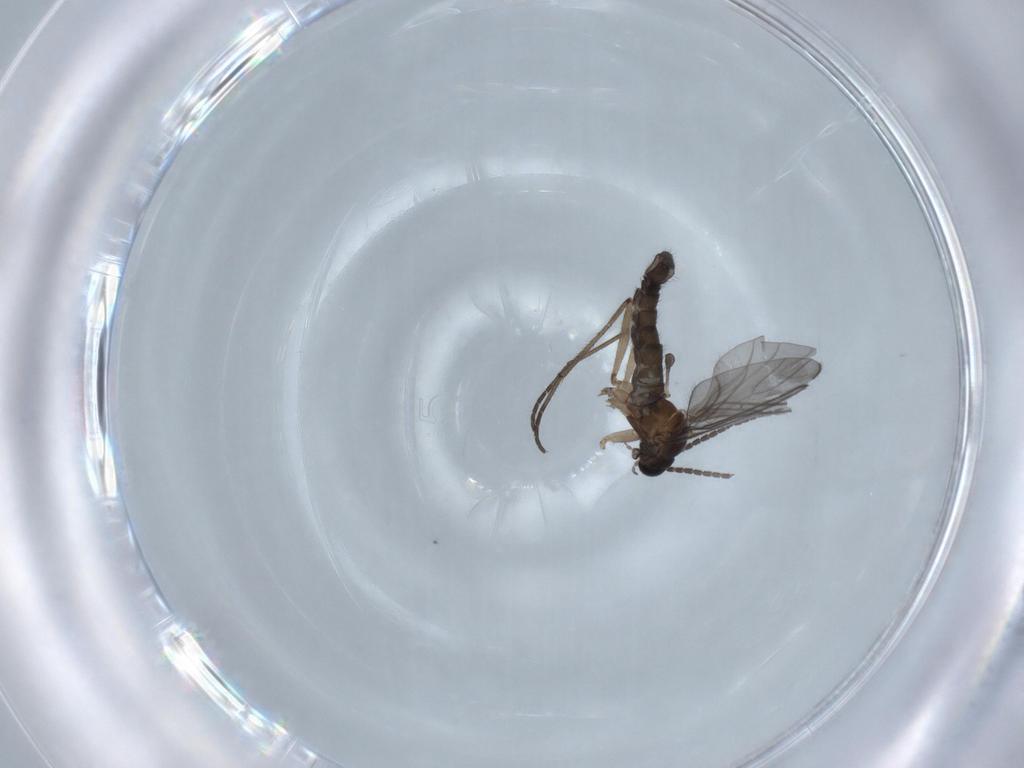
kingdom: Animalia
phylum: Arthropoda
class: Insecta
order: Diptera
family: Cecidomyiidae
